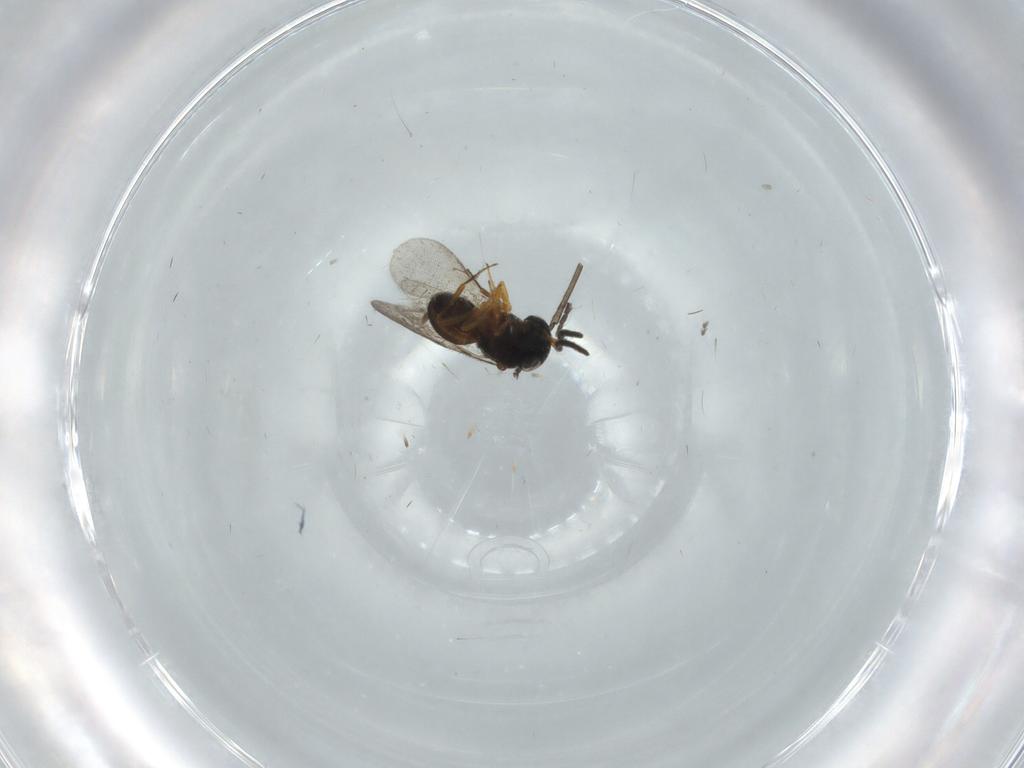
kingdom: Animalia
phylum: Arthropoda
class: Insecta
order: Hymenoptera
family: Scelionidae
